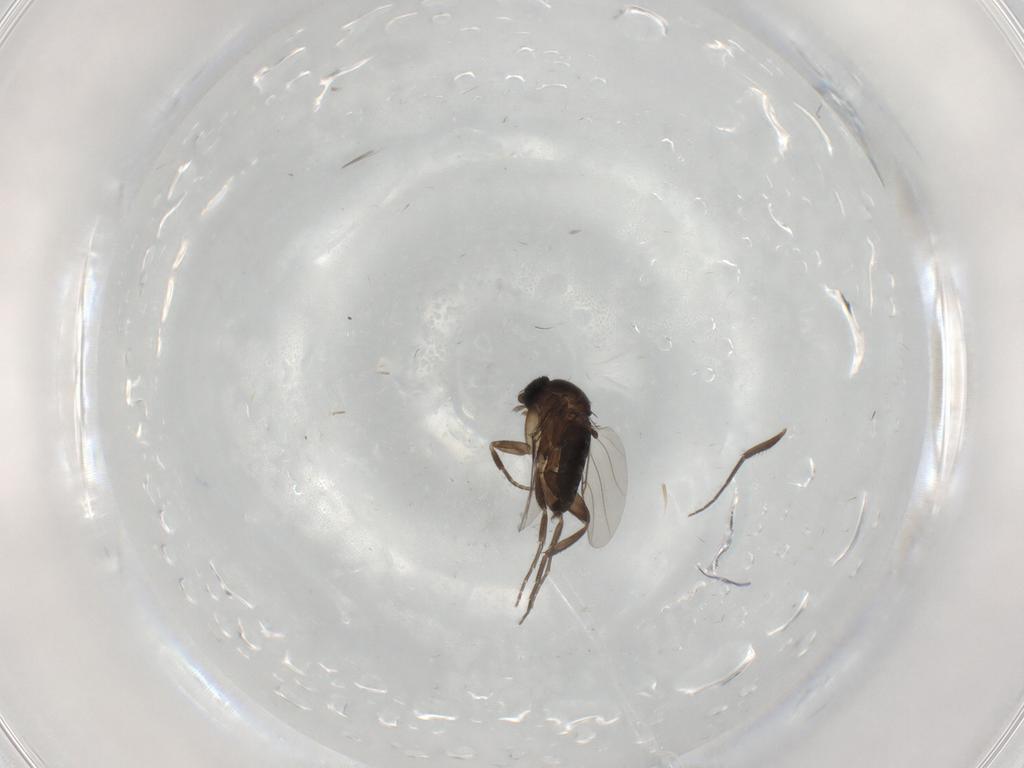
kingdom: Animalia
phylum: Arthropoda
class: Insecta
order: Diptera
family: Phoridae
